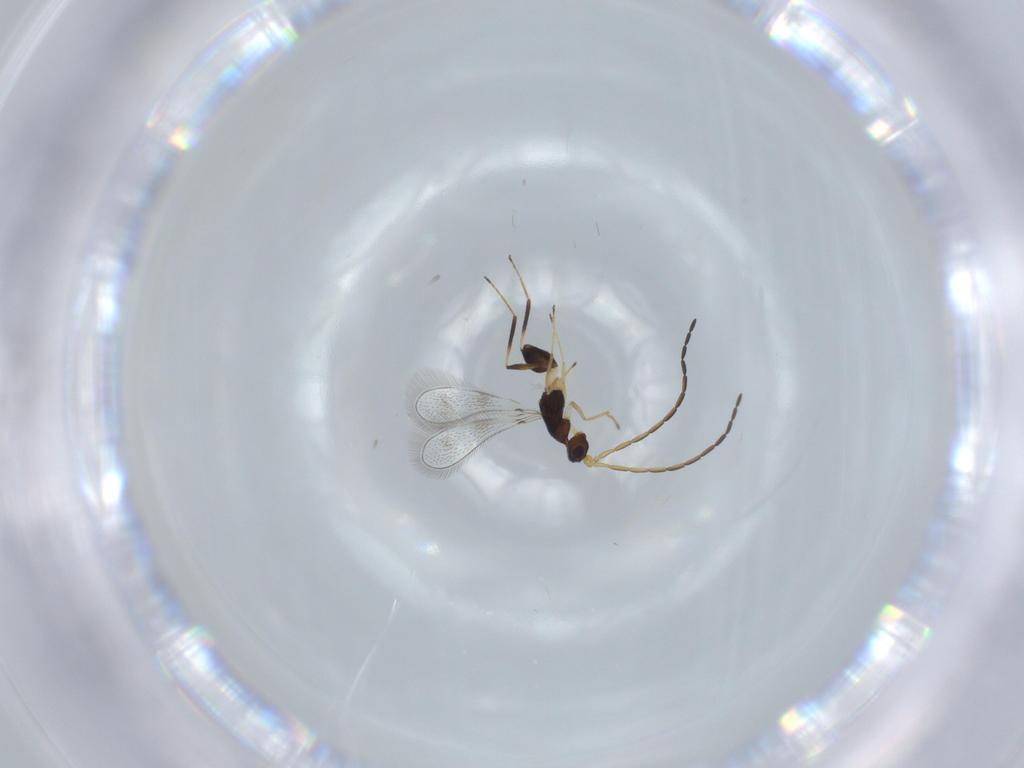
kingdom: Animalia
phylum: Arthropoda
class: Insecta
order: Hymenoptera
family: Mymaridae
